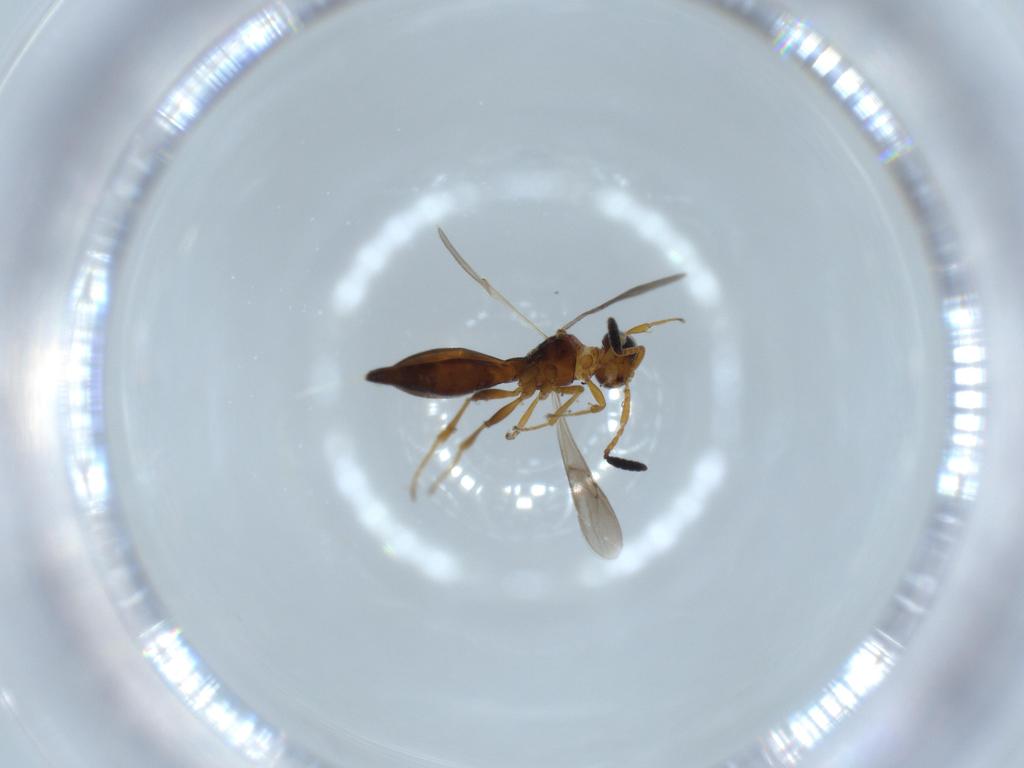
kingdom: Animalia
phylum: Arthropoda
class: Insecta
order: Hymenoptera
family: Scelionidae
